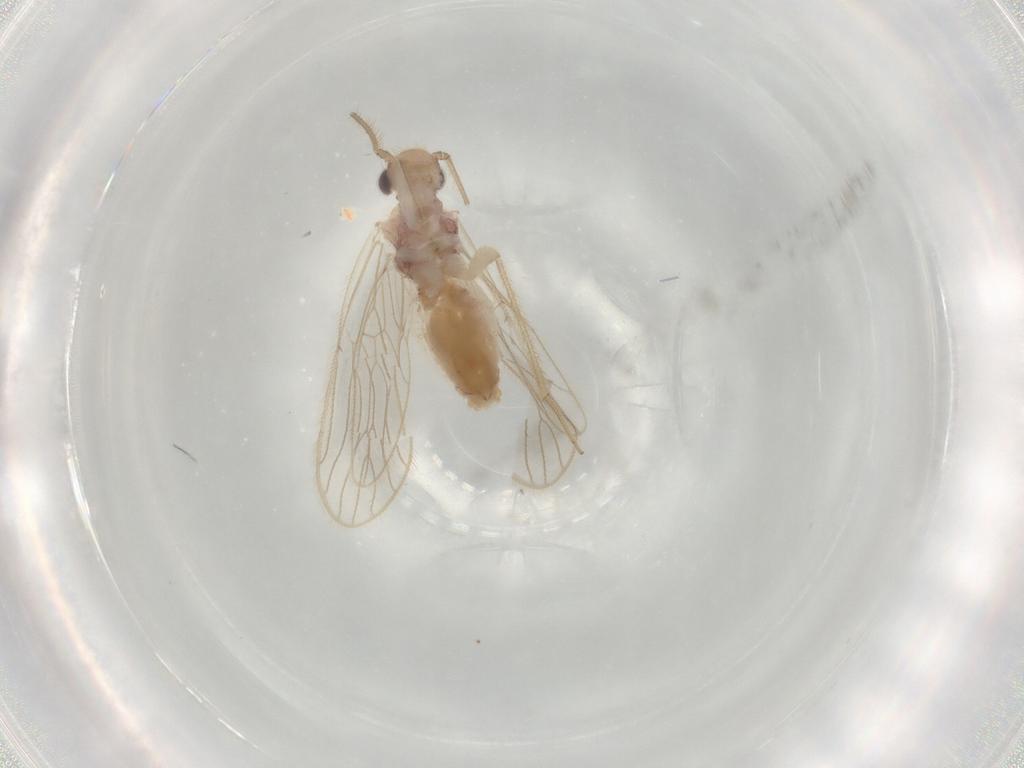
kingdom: Animalia
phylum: Arthropoda
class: Insecta
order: Psocodea
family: Cladiopsocidae
